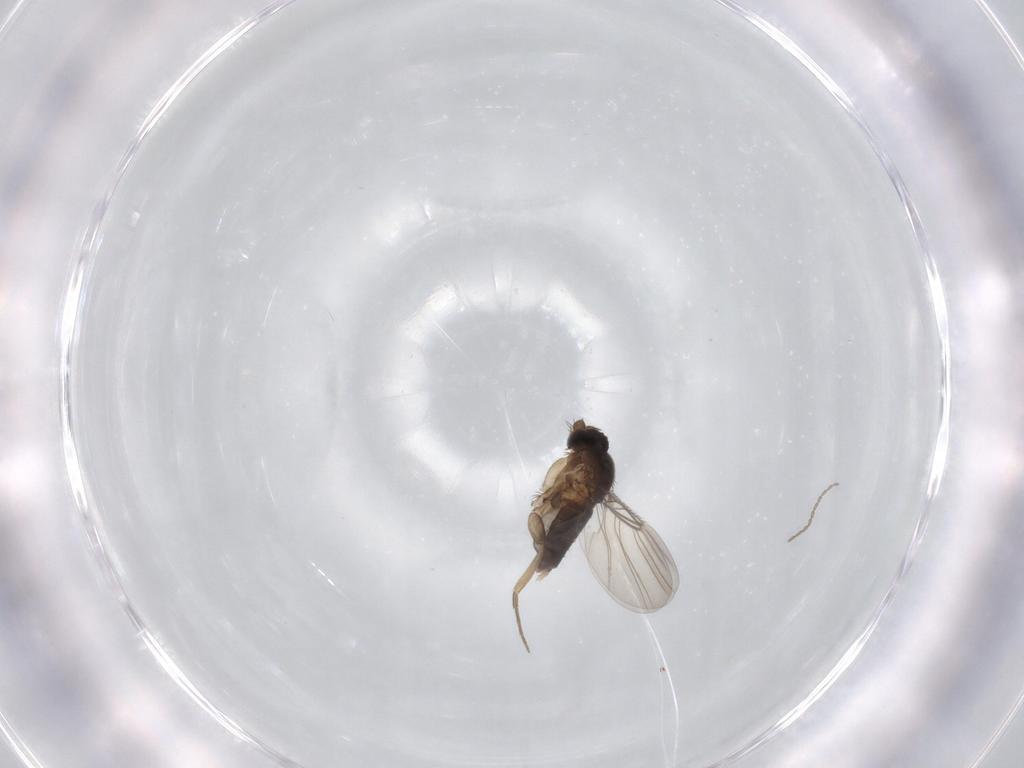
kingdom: Animalia
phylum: Arthropoda
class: Insecta
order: Diptera
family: Phoridae
